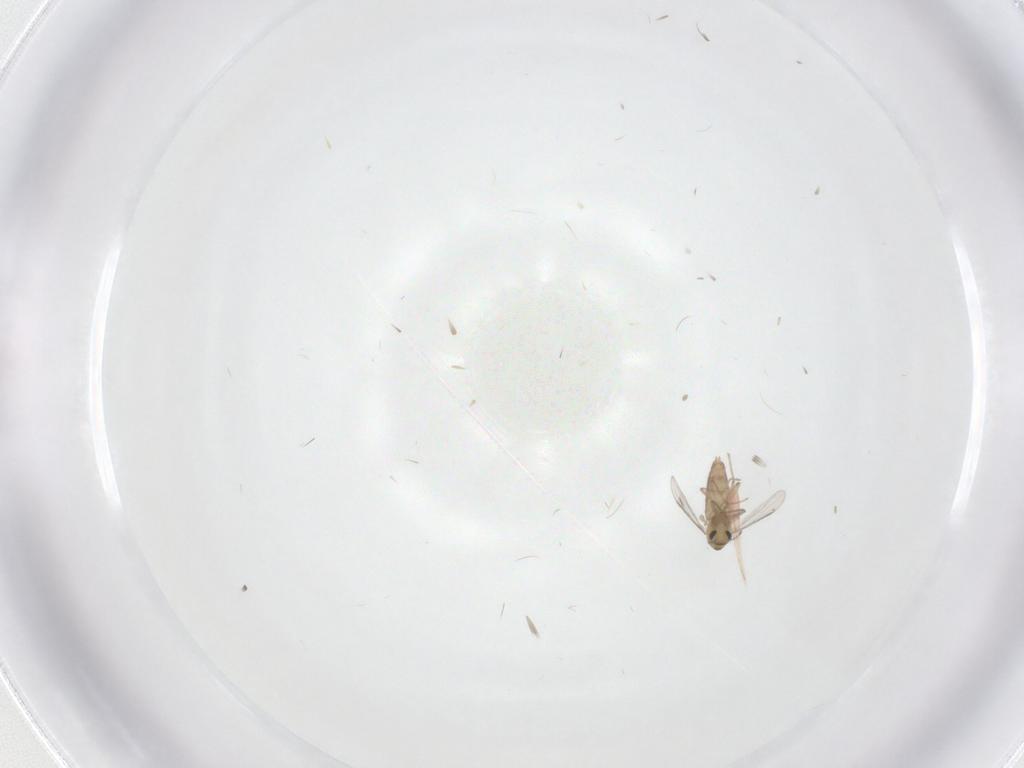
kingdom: Animalia
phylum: Arthropoda
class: Insecta
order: Diptera
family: Chironomidae
